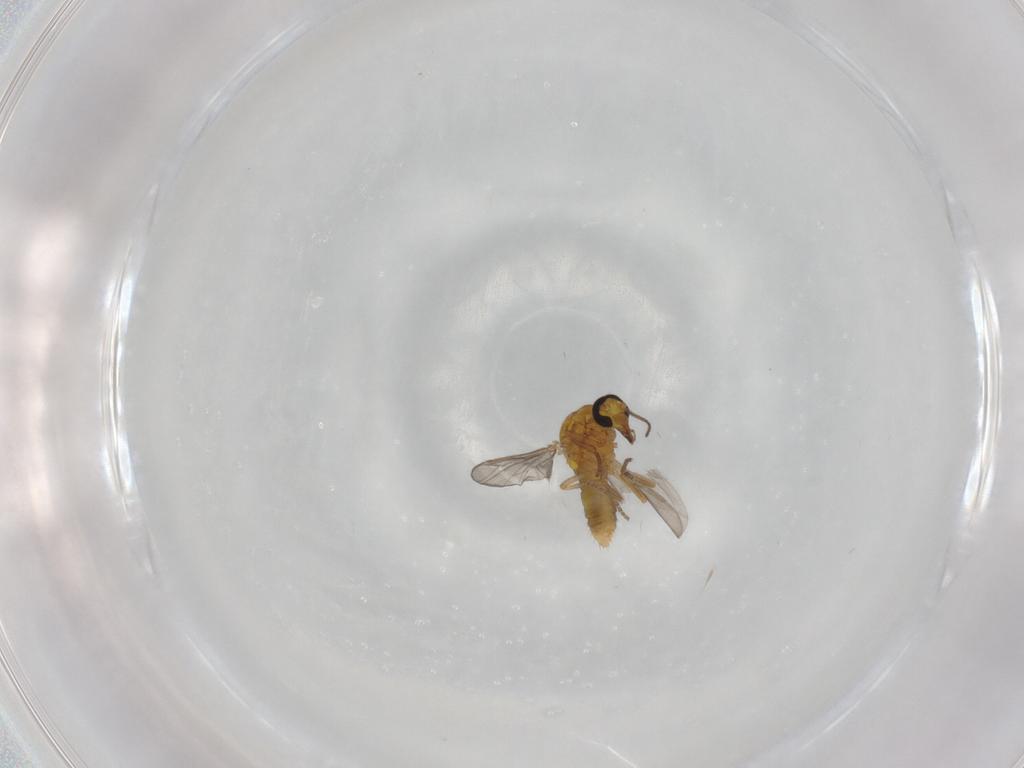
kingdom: Animalia
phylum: Arthropoda
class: Insecta
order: Diptera
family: Ceratopogonidae
